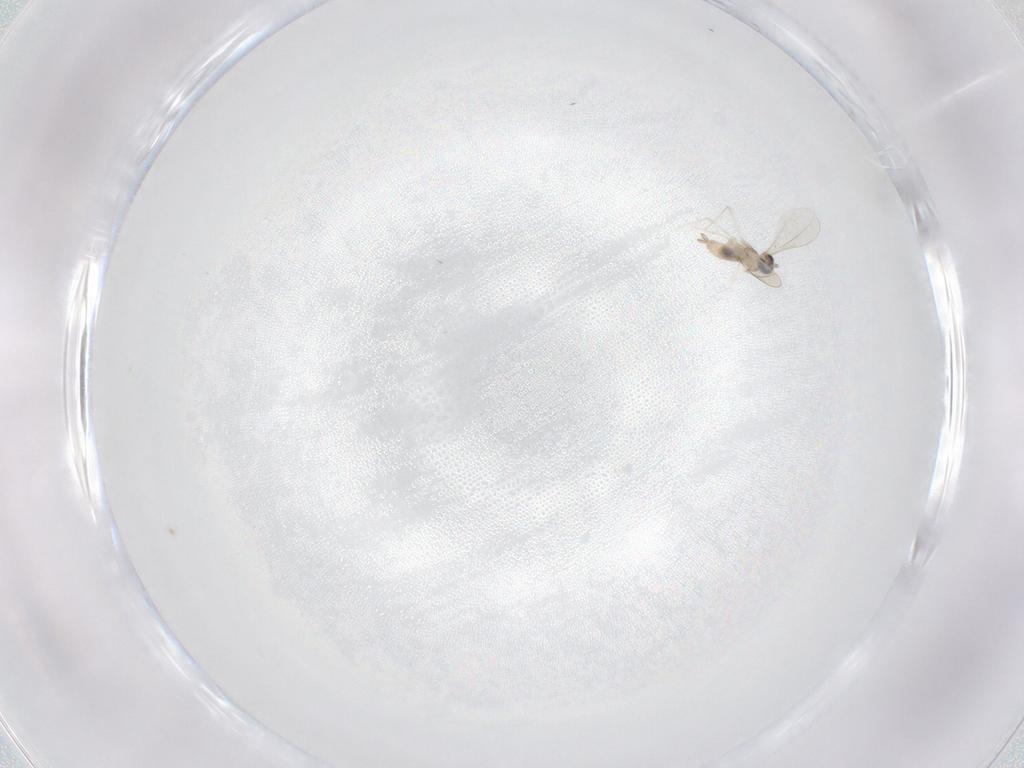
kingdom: Animalia
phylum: Arthropoda
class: Insecta
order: Diptera
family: Cecidomyiidae
